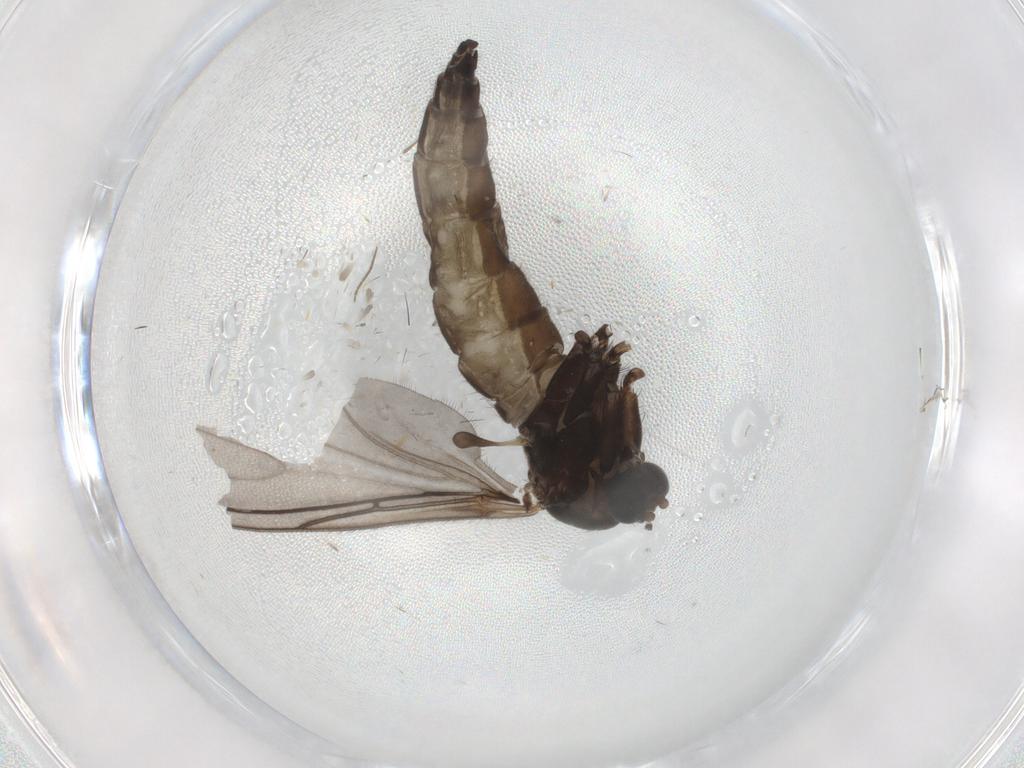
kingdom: Animalia
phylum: Arthropoda
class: Insecta
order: Diptera
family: Sciaridae
